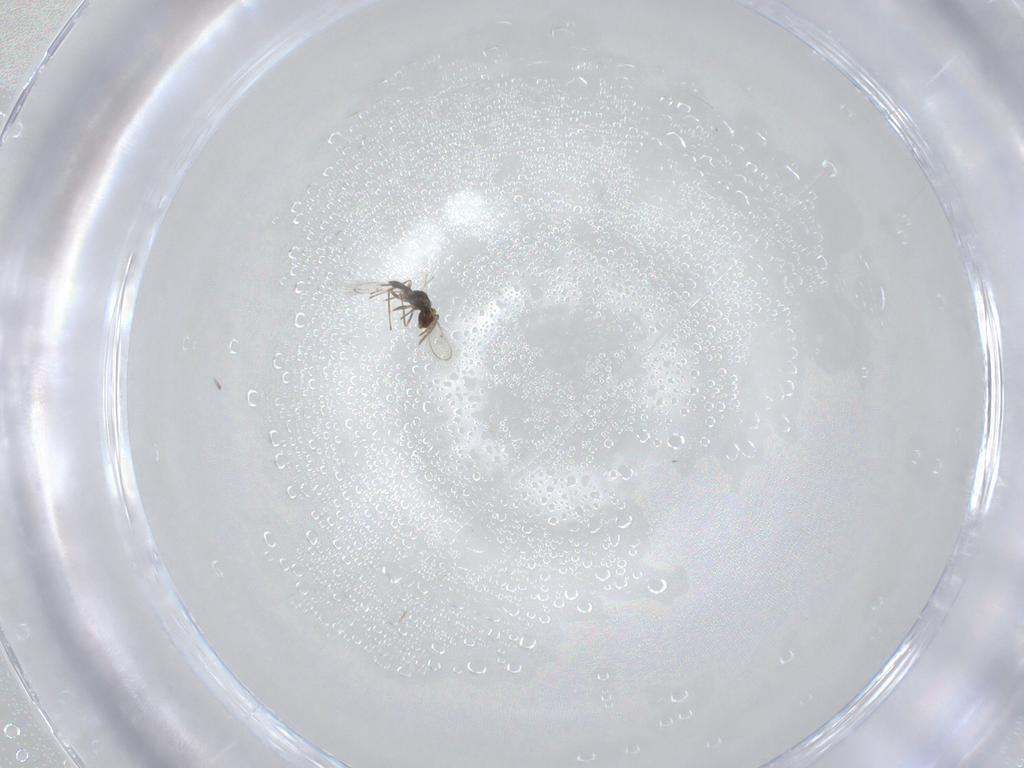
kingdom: Animalia
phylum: Arthropoda
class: Insecta
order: Hymenoptera
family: Eulophidae
